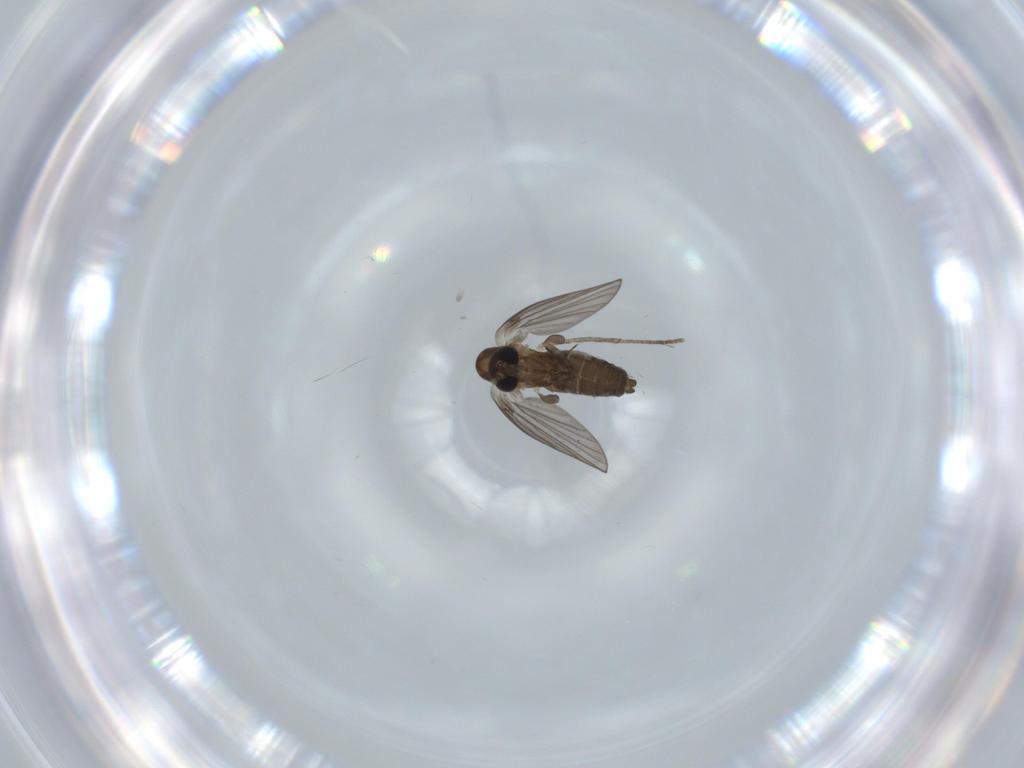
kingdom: Animalia
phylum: Arthropoda
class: Insecta
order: Diptera
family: Psychodidae
